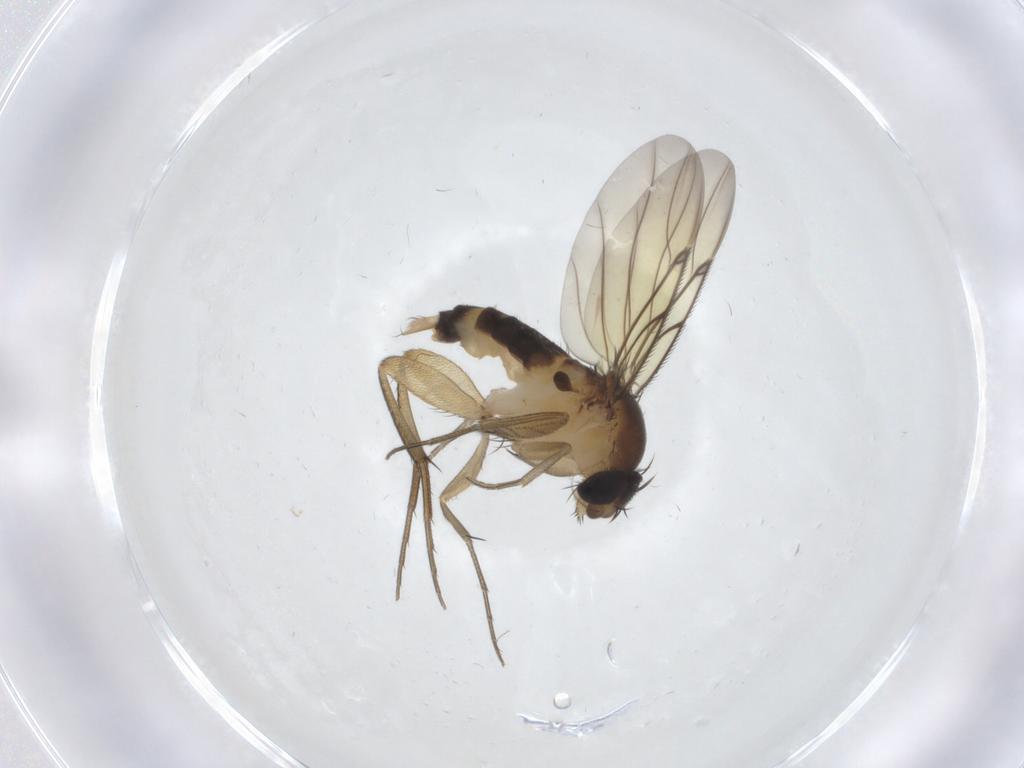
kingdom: Animalia
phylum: Arthropoda
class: Insecta
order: Diptera
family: Phoridae
